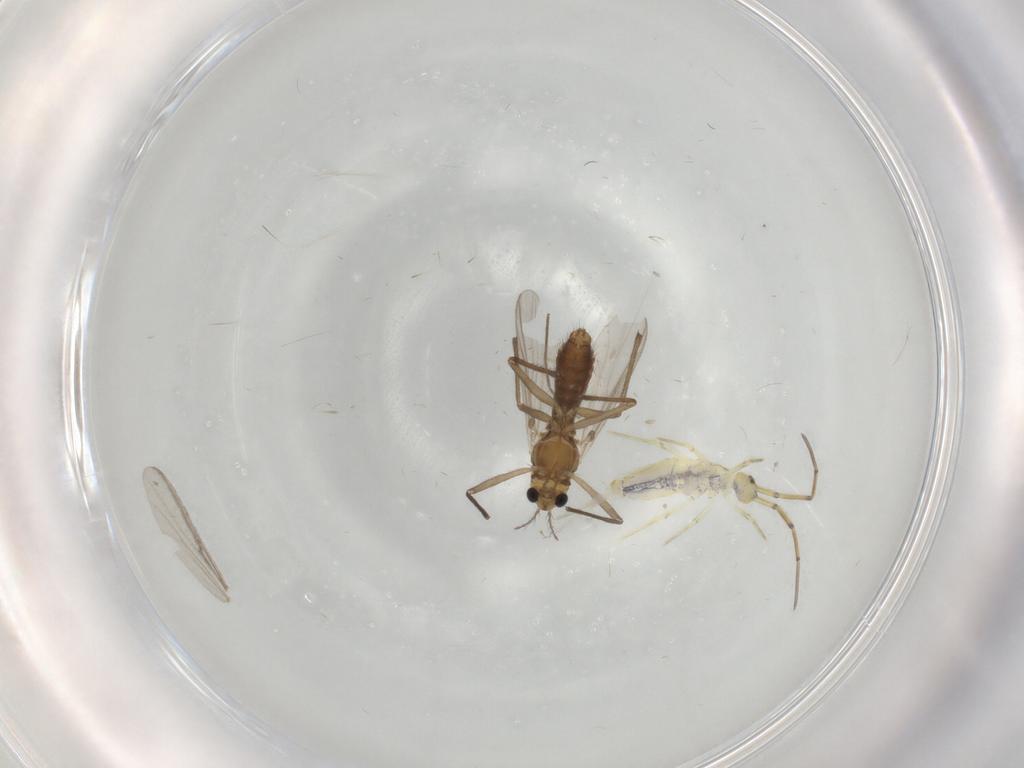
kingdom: Animalia
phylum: Arthropoda
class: Insecta
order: Diptera
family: Chironomidae
